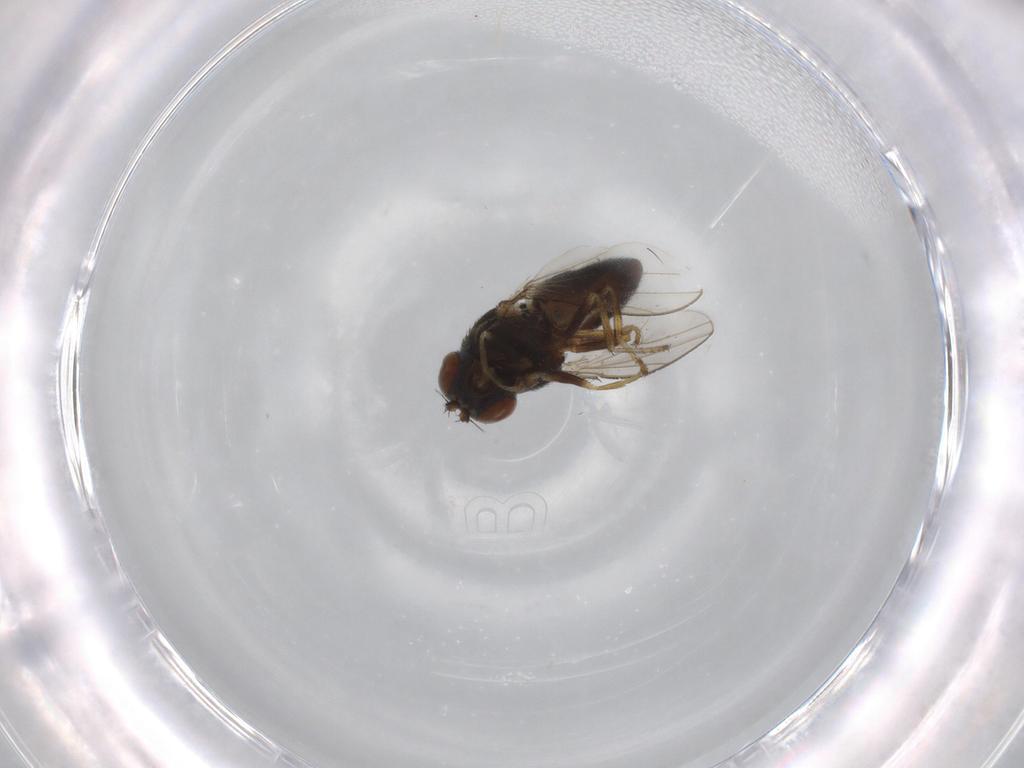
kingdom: Animalia
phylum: Arthropoda
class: Insecta
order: Diptera
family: Ephydridae
